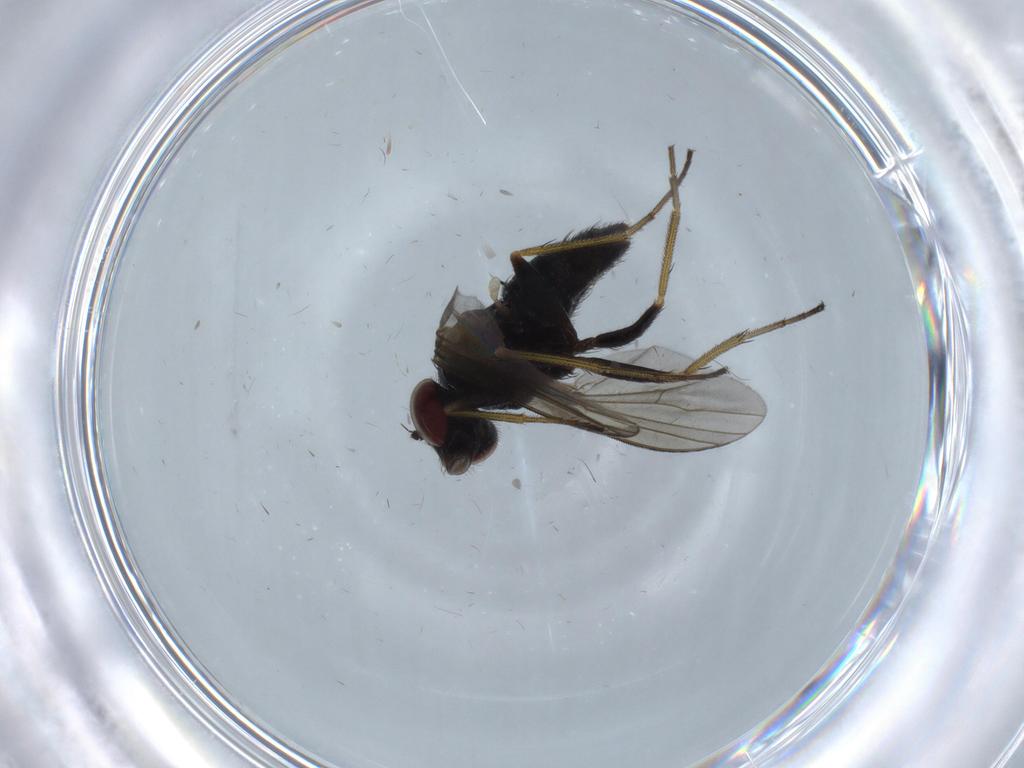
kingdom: Animalia
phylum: Arthropoda
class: Insecta
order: Diptera
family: Dolichopodidae
